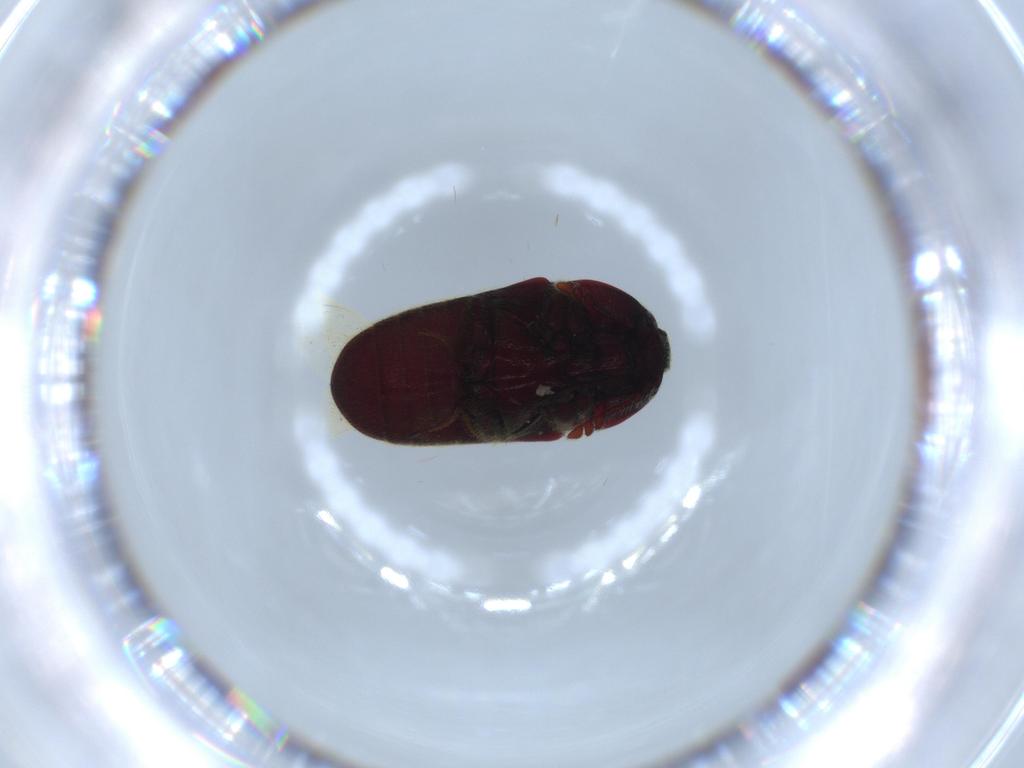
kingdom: Animalia
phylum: Arthropoda
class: Insecta
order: Coleoptera
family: Throscidae
